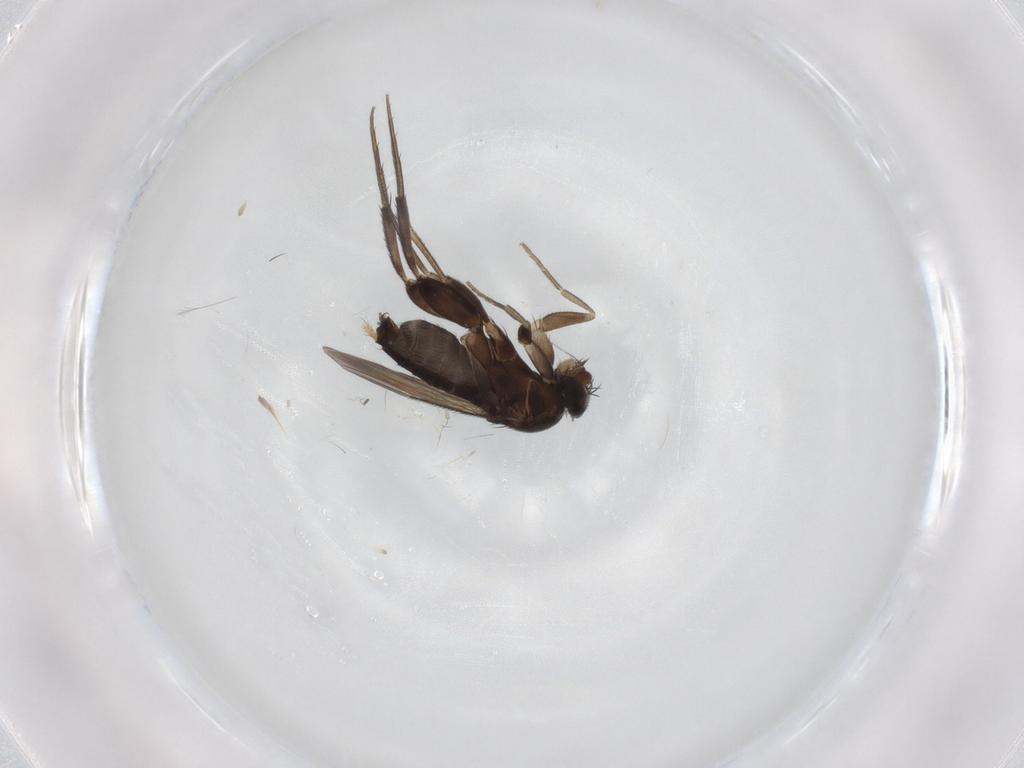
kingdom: Animalia
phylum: Arthropoda
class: Insecta
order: Diptera
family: Phoridae
